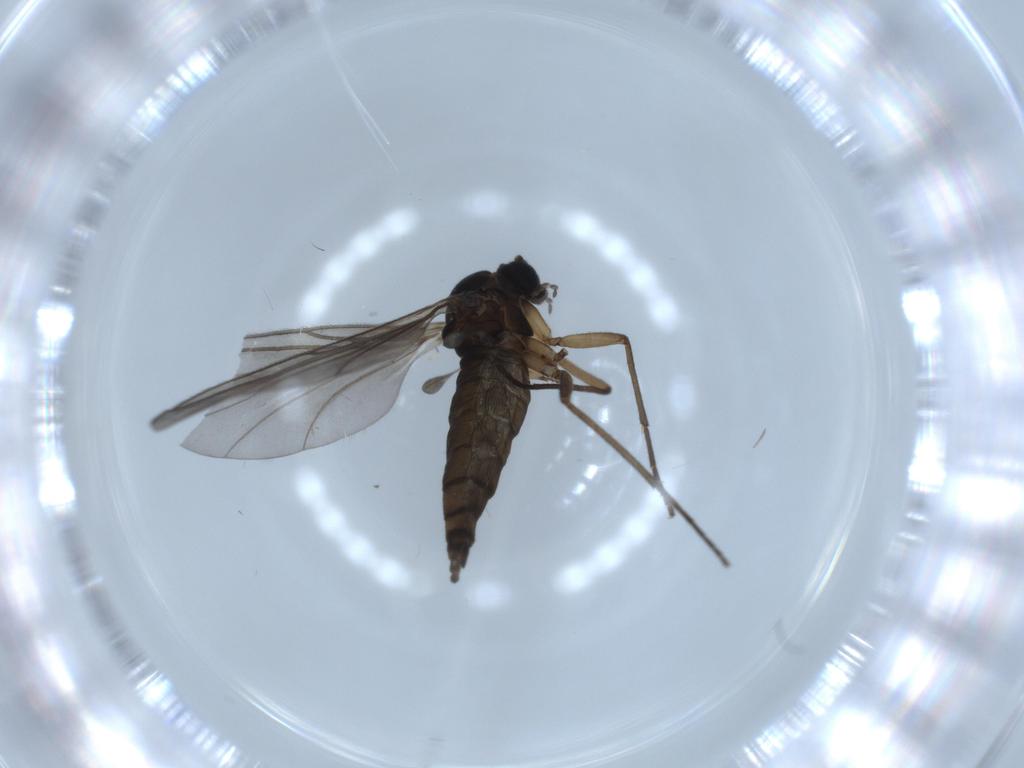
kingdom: Animalia
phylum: Arthropoda
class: Insecta
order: Diptera
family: Sciaridae
